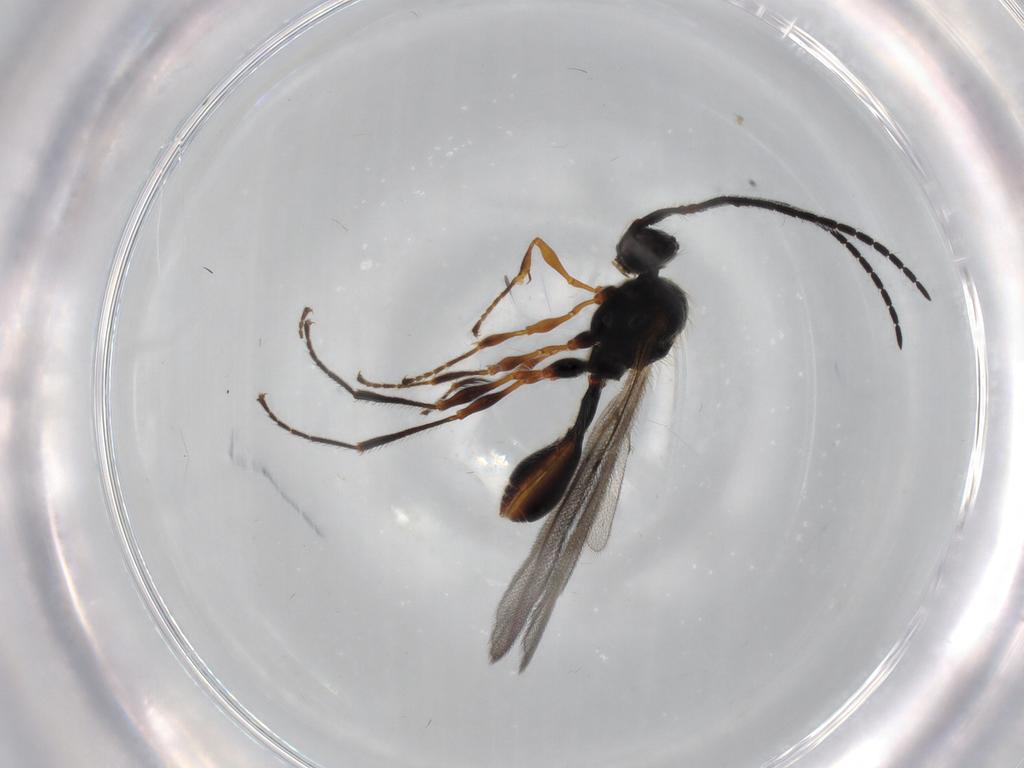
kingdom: Animalia
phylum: Arthropoda
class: Insecta
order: Hymenoptera
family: Diapriidae
